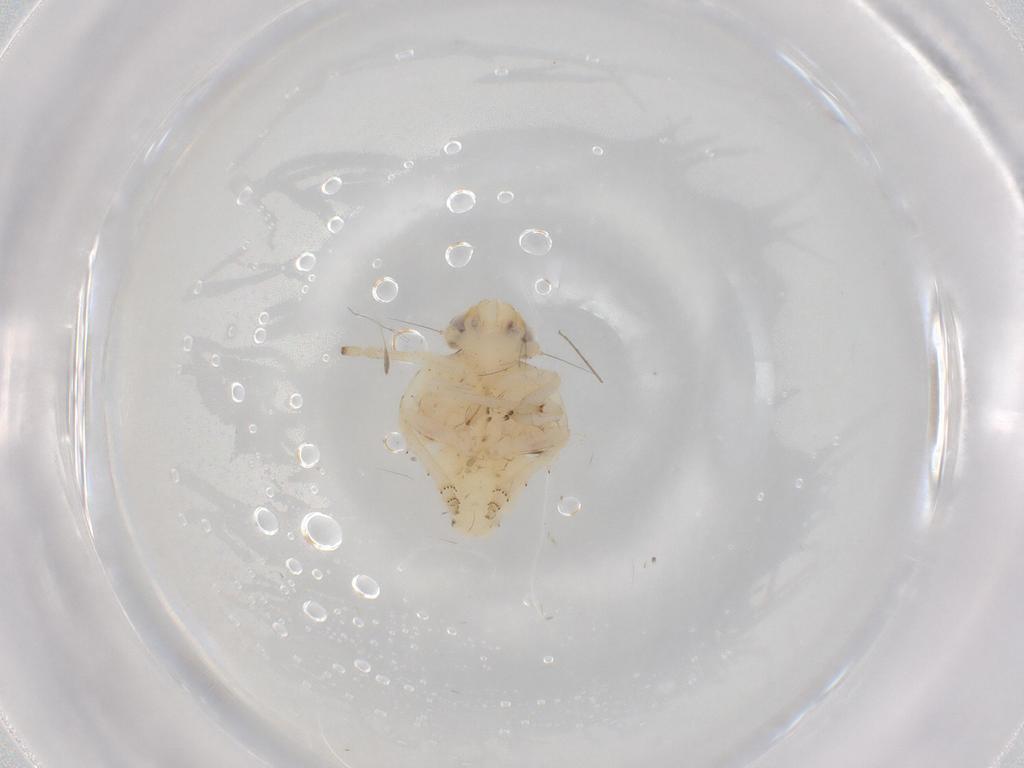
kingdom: Animalia
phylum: Arthropoda
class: Insecta
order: Hemiptera
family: Nogodinidae
